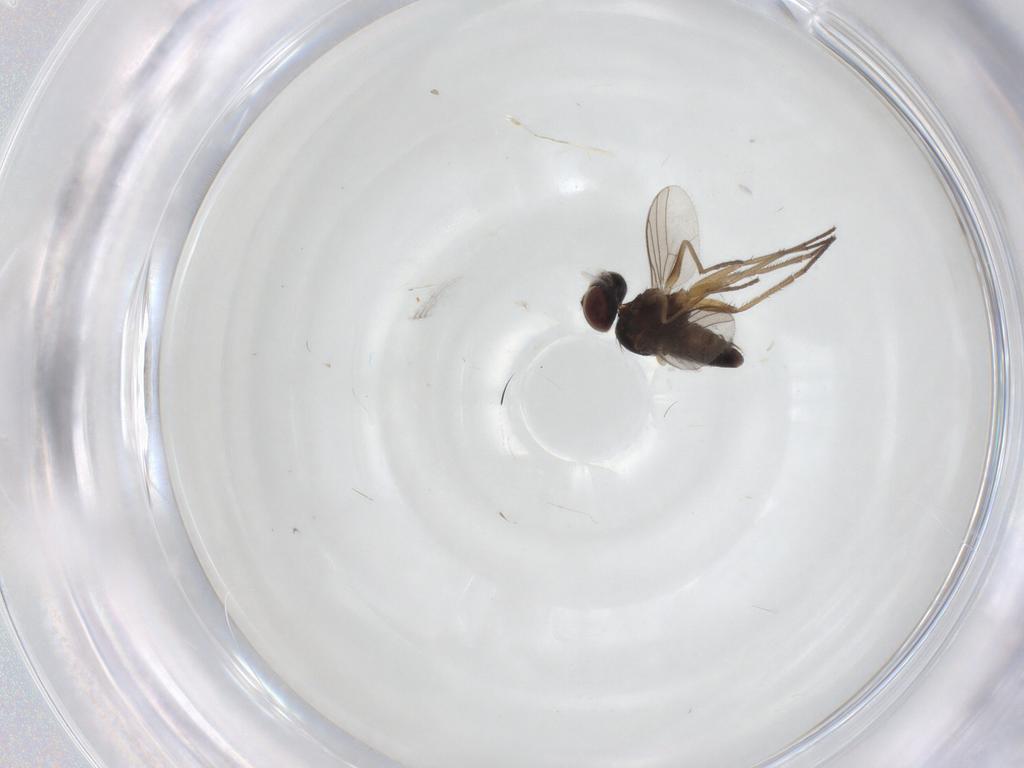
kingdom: Animalia
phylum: Arthropoda
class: Insecta
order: Diptera
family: Dolichopodidae
